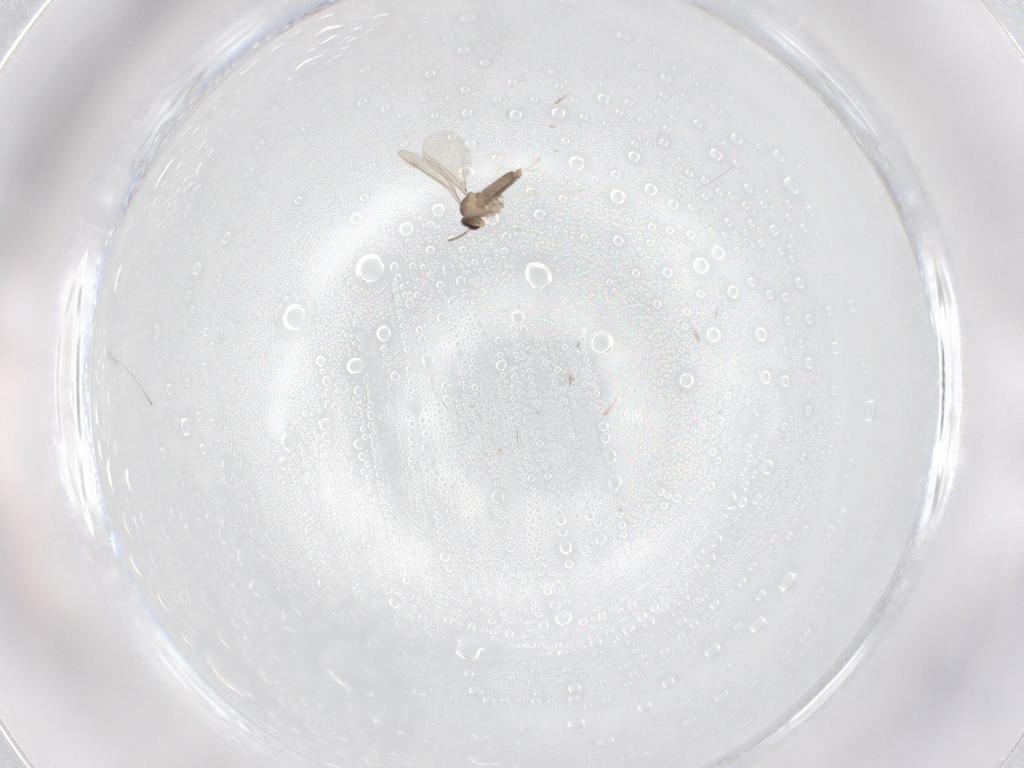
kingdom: Animalia
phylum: Arthropoda
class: Insecta
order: Diptera
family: Cecidomyiidae
